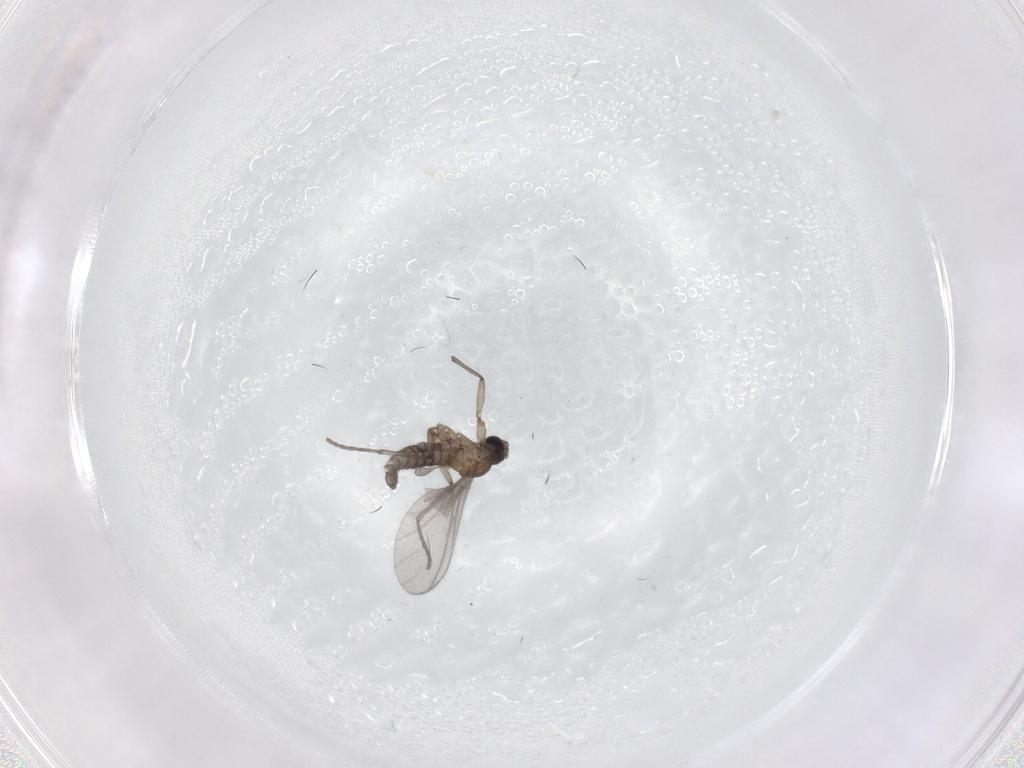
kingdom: Animalia
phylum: Arthropoda
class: Insecta
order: Diptera
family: Sciaridae
